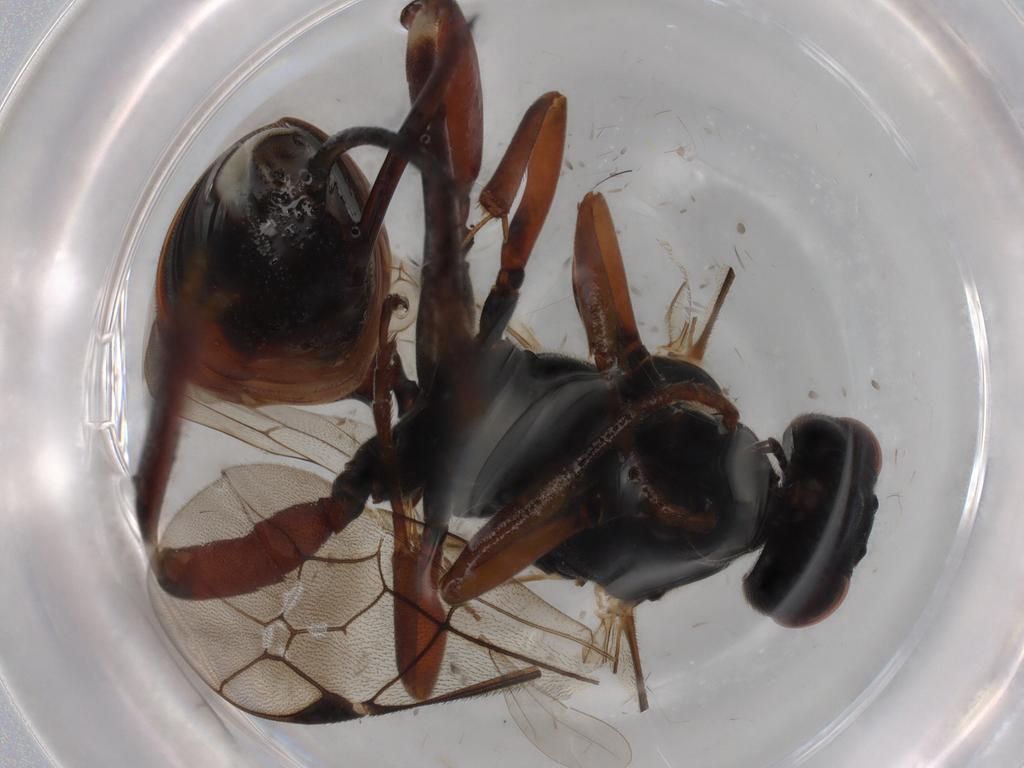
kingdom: Animalia
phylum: Arthropoda
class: Insecta
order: Hymenoptera
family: Ichneumonidae
